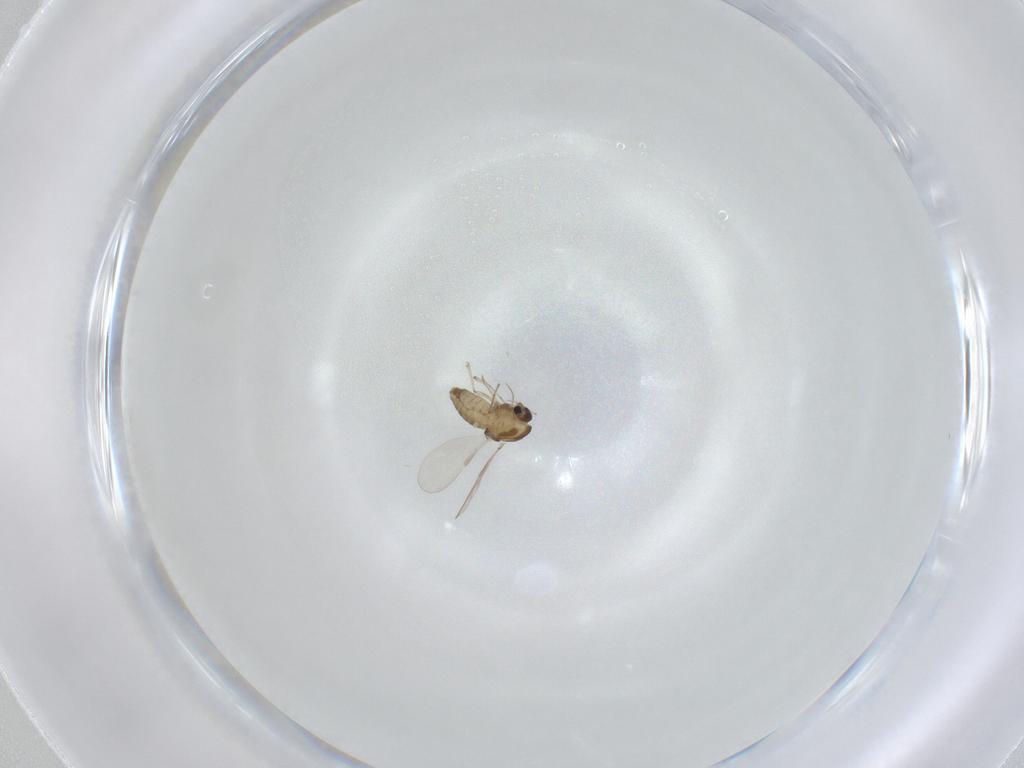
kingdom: Animalia
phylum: Arthropoda
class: Insecta
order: Diptera
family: Chironomidae
